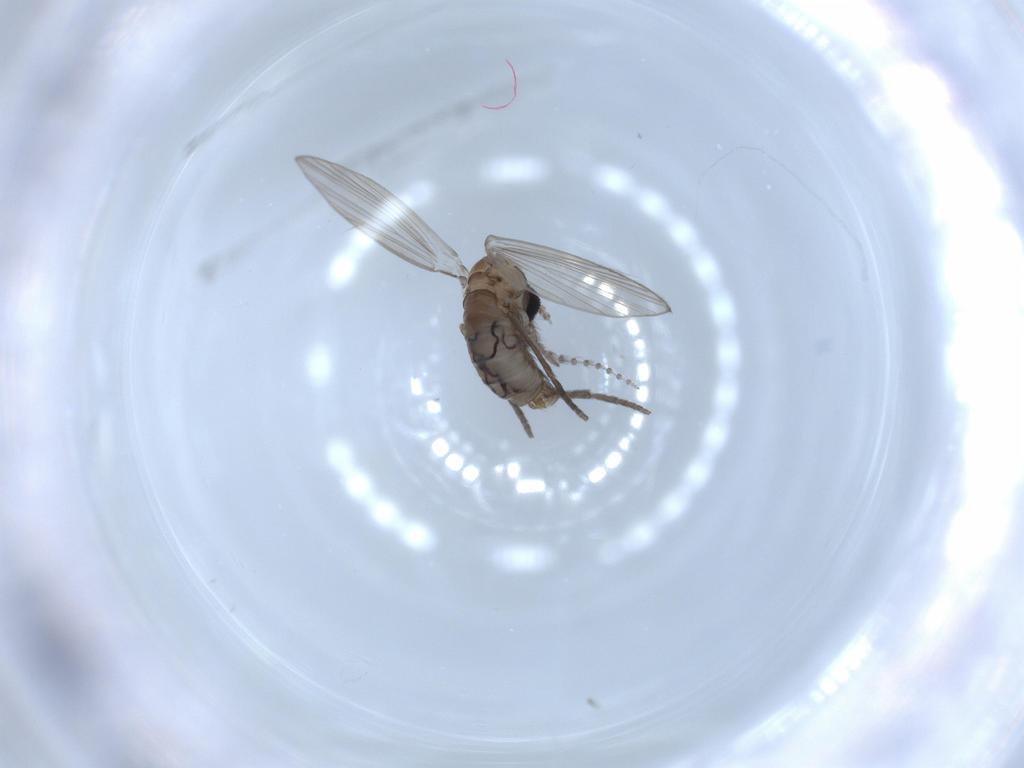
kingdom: Animalia
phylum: Arthropoda
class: Insecta
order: Diptera
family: Psychodidae
